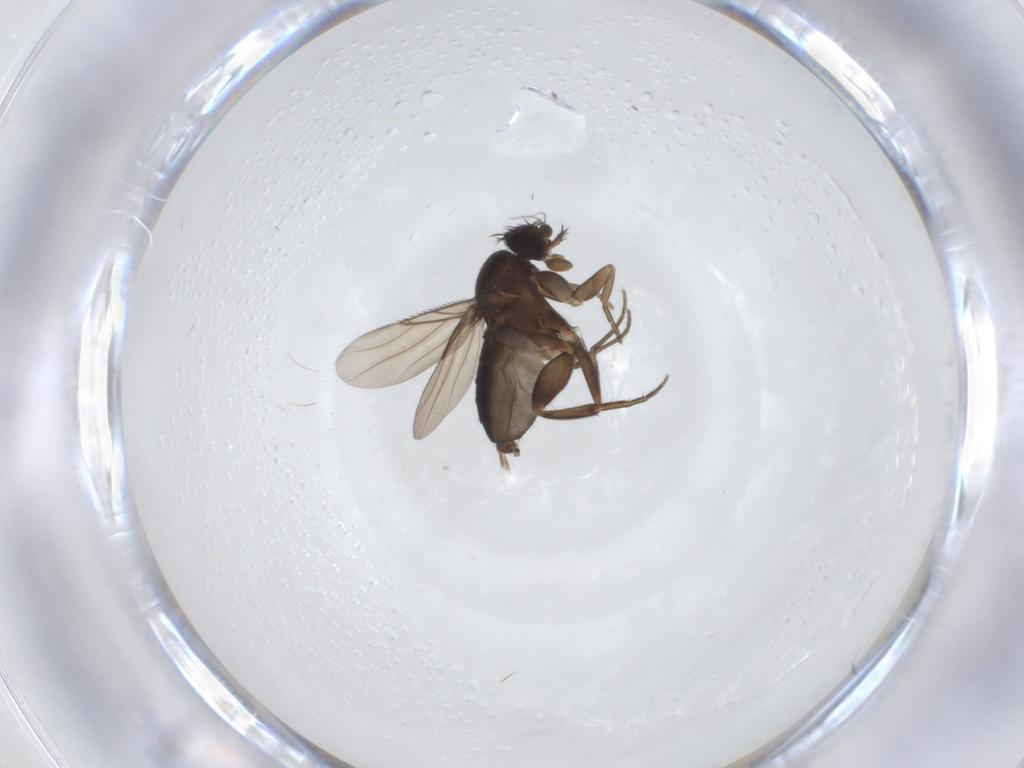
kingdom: Animalia
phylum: Arthropoda
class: Insecta
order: Diptera
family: Phoridae
